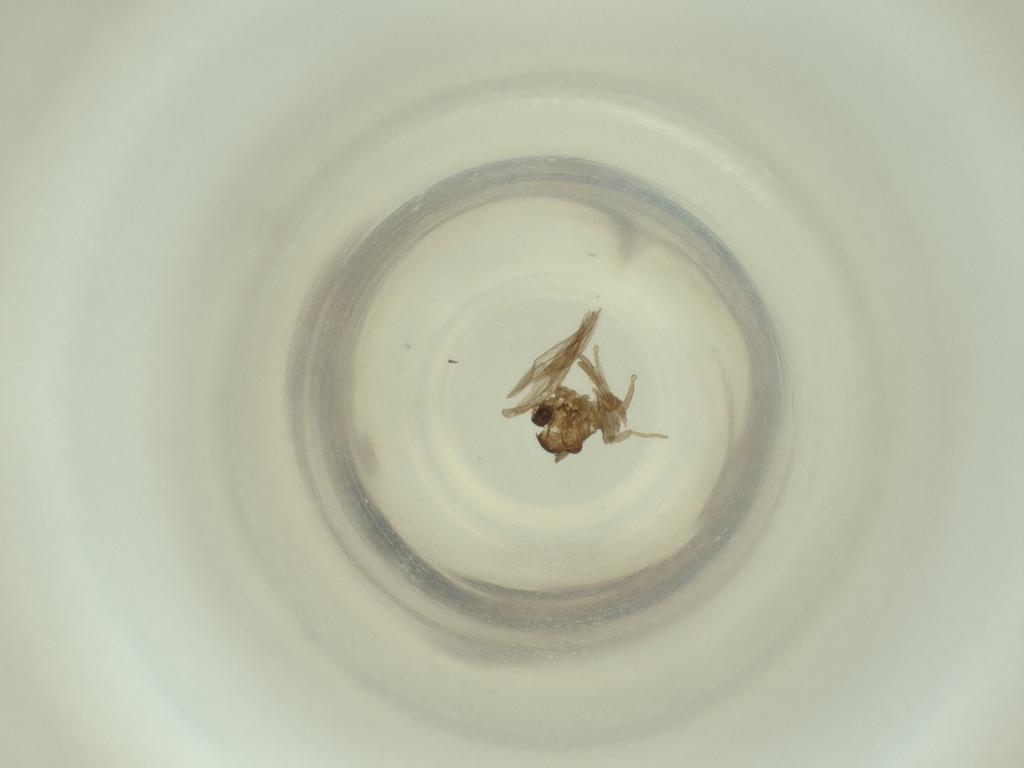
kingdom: Animalia
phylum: Arthropoda
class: Insecta
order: Diptera
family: Cecidomyiidae
